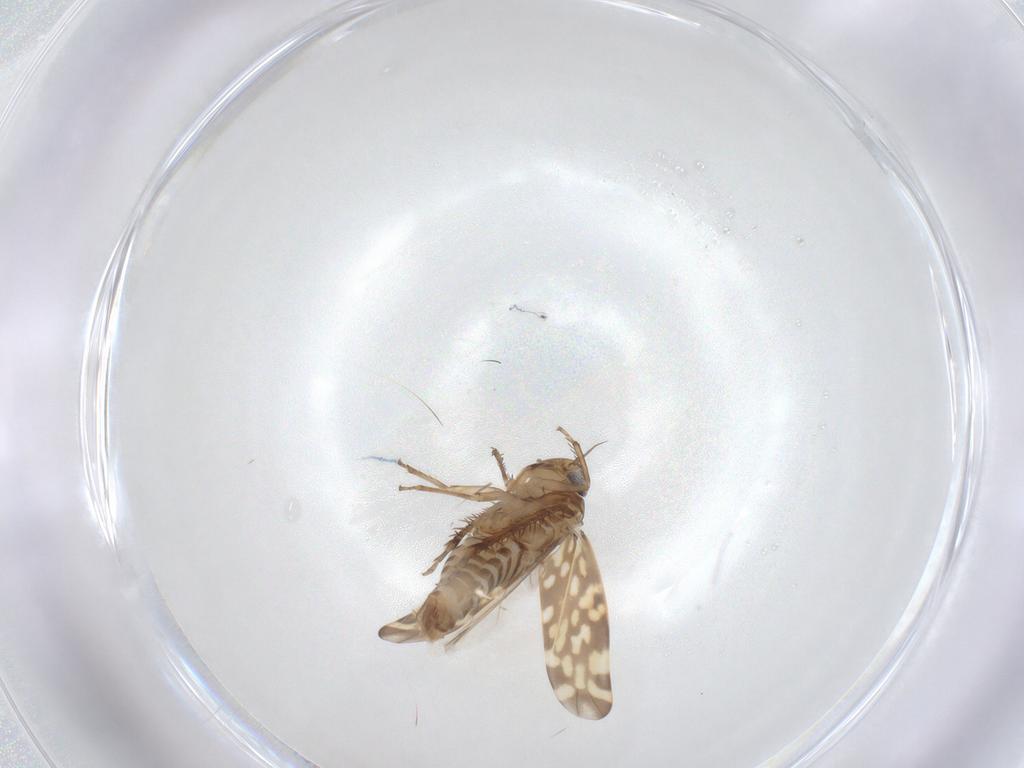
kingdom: Animalia
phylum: Arthropoda
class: Insecta
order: Hemiptera
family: Cicadellidae
